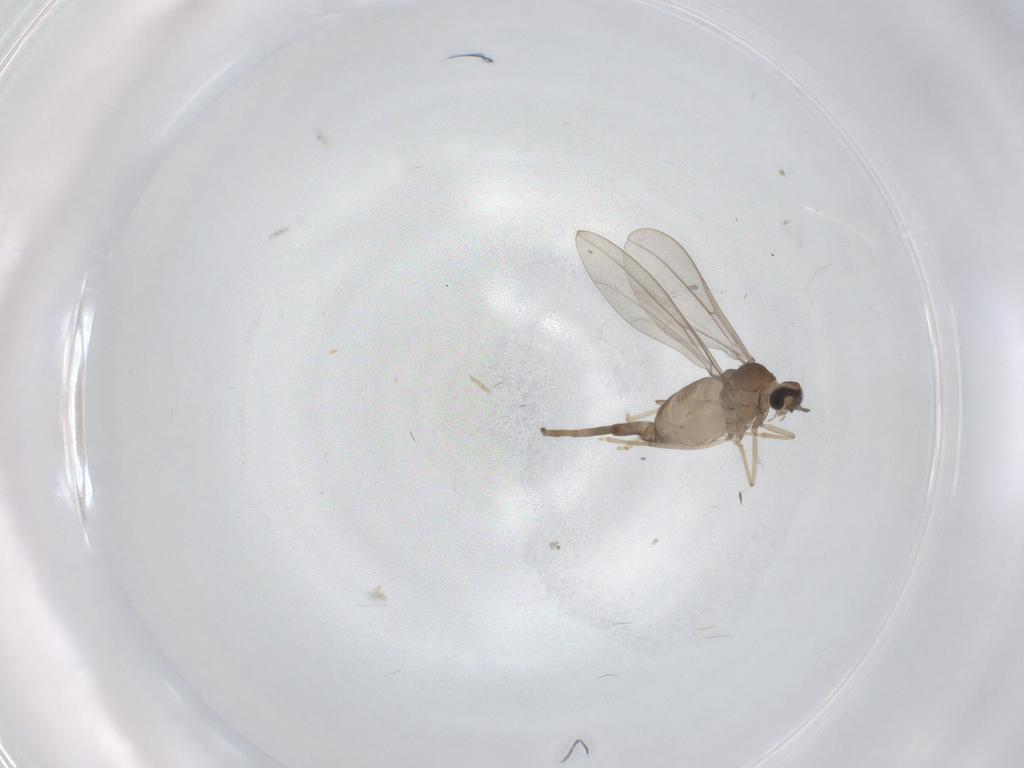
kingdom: Animalia
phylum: Arthropoda
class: Insecta
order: Diptera
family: Cecidomyiidae
